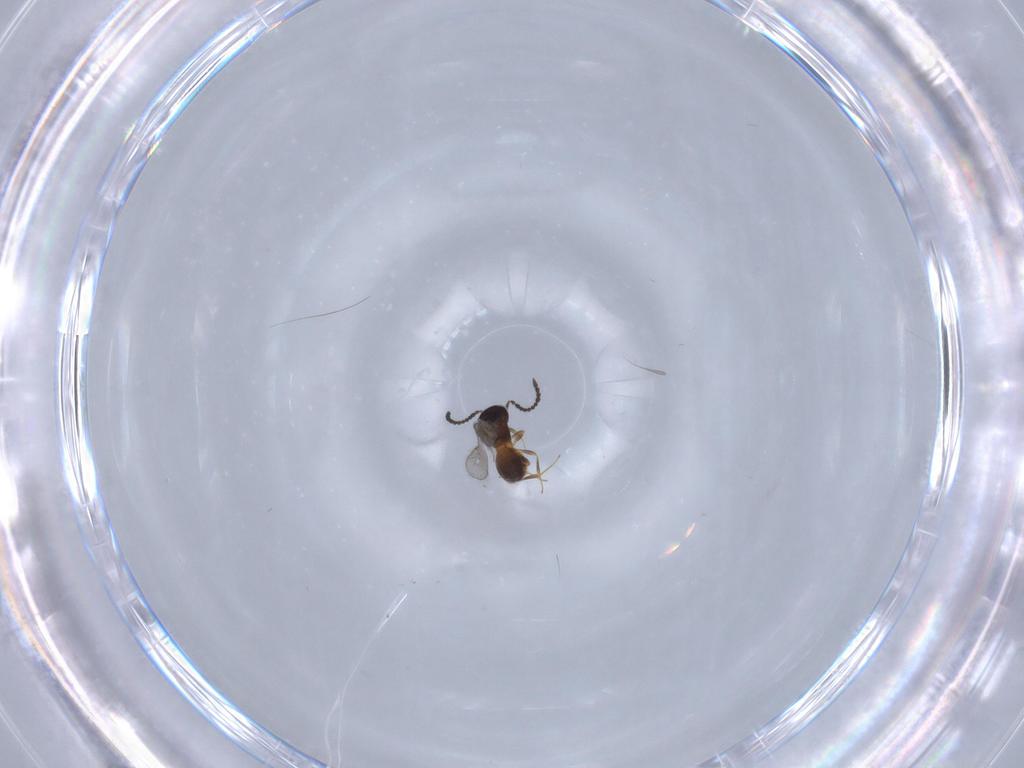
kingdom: Animalia
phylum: Arthropoda
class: Insecta
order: Hymenoptera
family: Scelionidae
